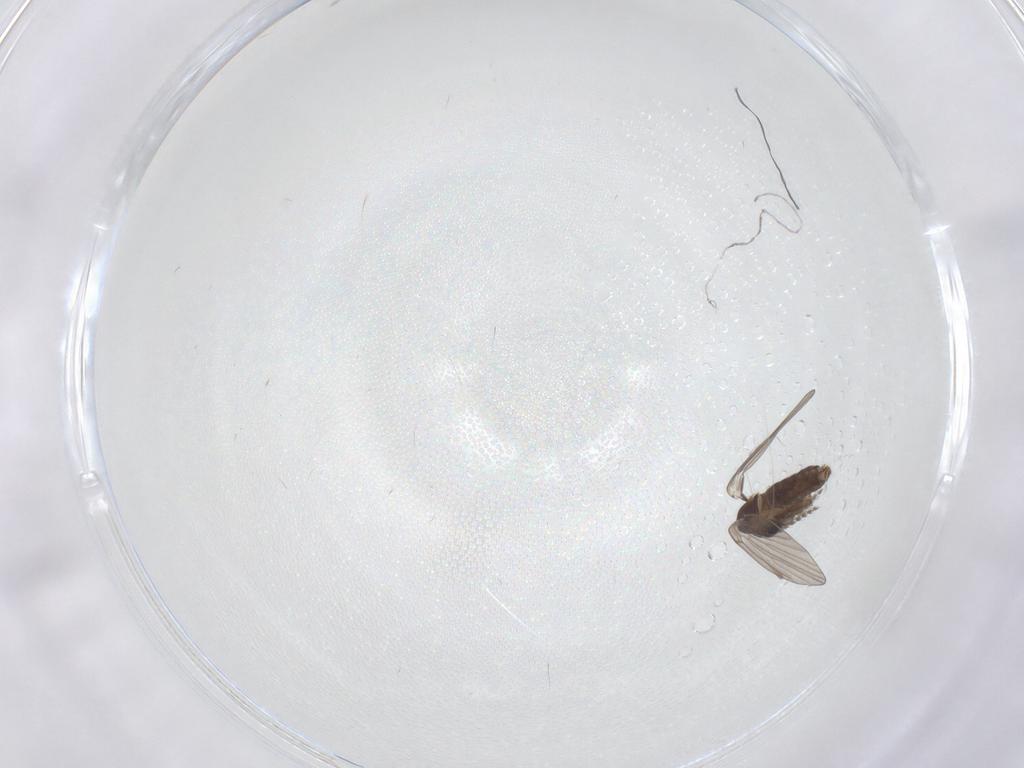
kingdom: Animalia
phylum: Arthropoda
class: Insecta
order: Diptera
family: Psychodidae
